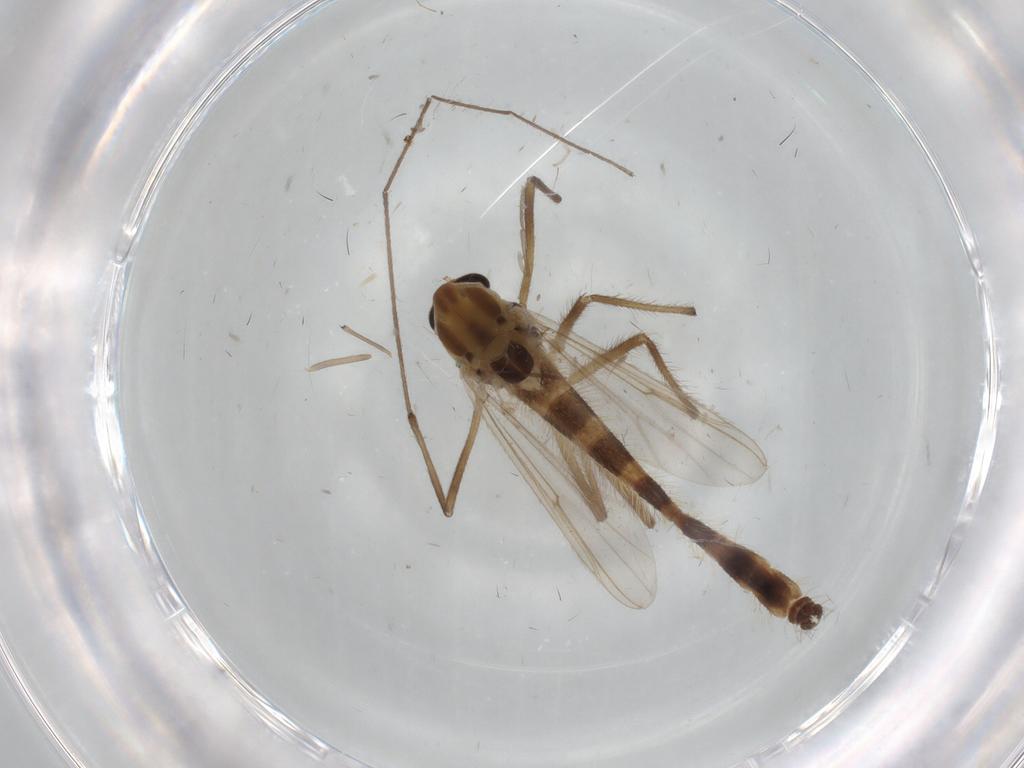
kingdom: Animalia
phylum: Arthropoda
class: Insecta
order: Diptera
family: Chironomidae
